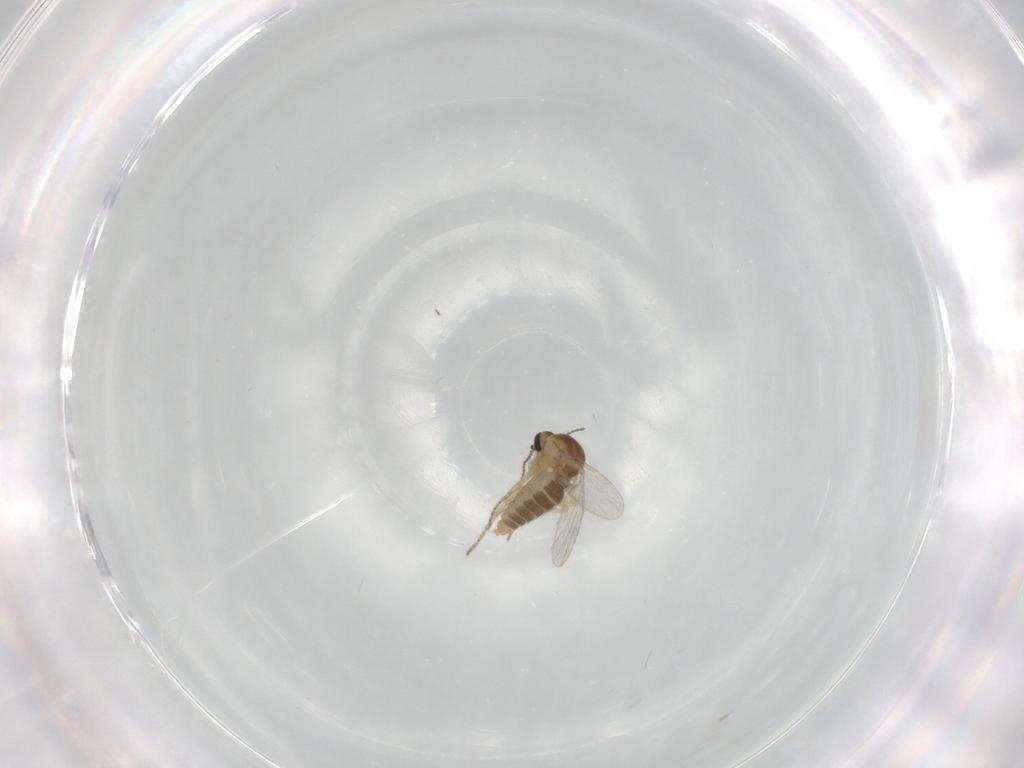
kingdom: Animalia
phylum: Arthropoda
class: Insecta
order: Diptera
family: Ceratopogonidae
